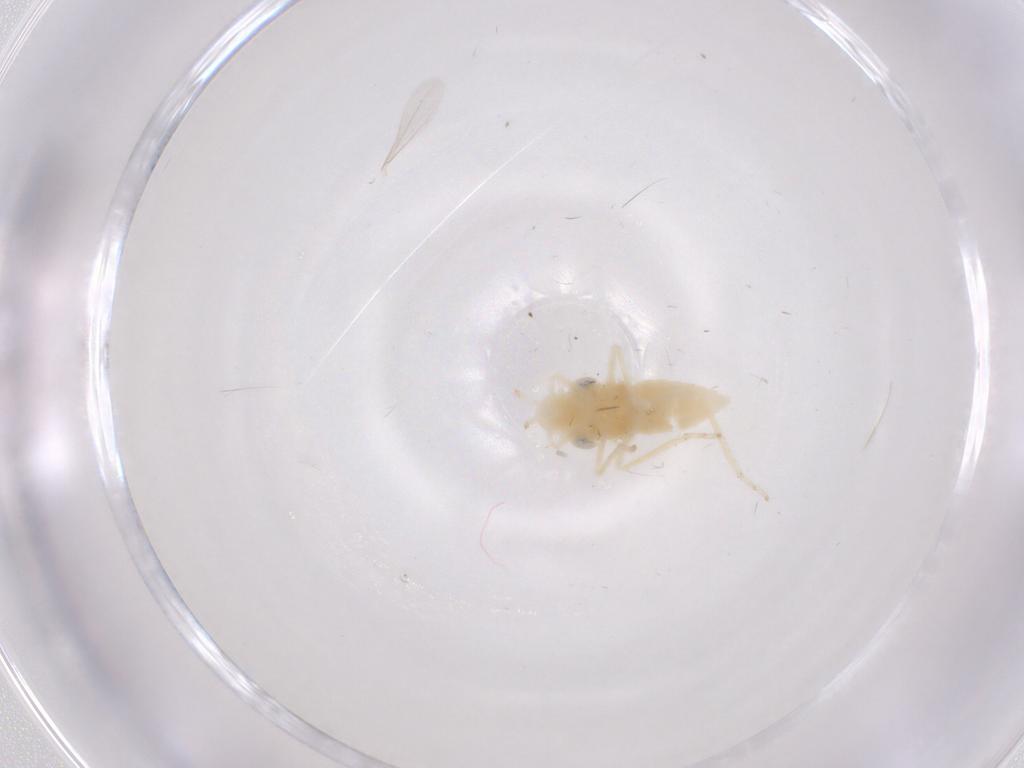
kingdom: Animalia
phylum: Arthropoda
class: Insecta
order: Hemiptera
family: Cicadellidae
